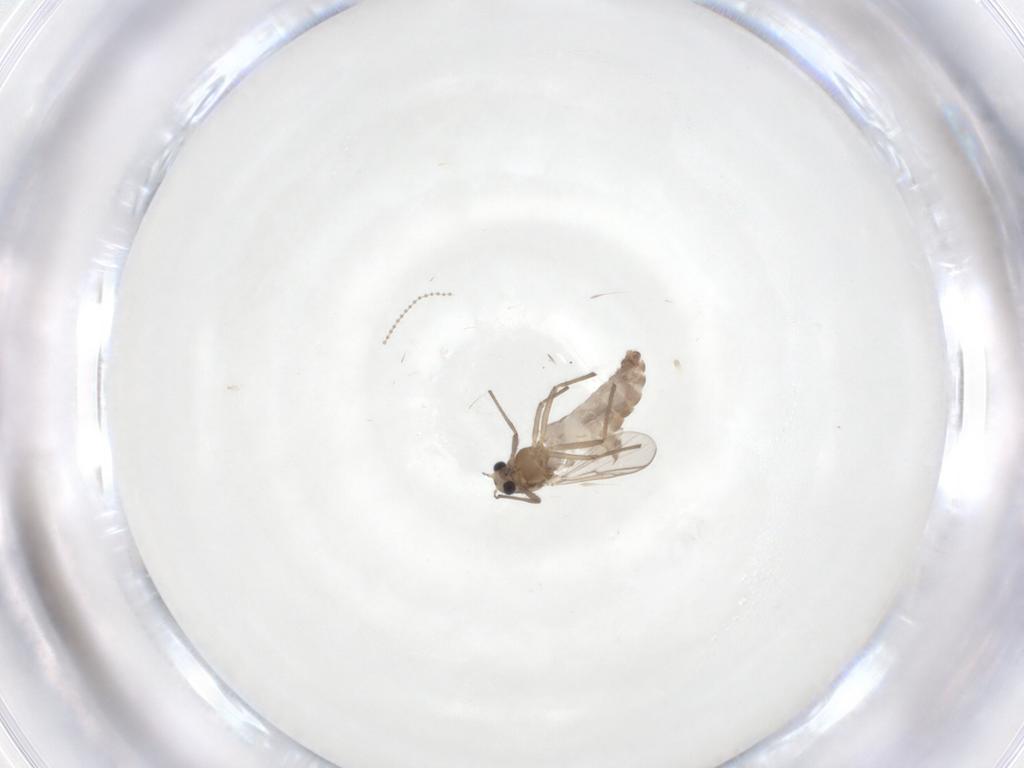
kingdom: Animalia
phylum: Arthropoda
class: Insecta
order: Diptera
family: Chironomidae
